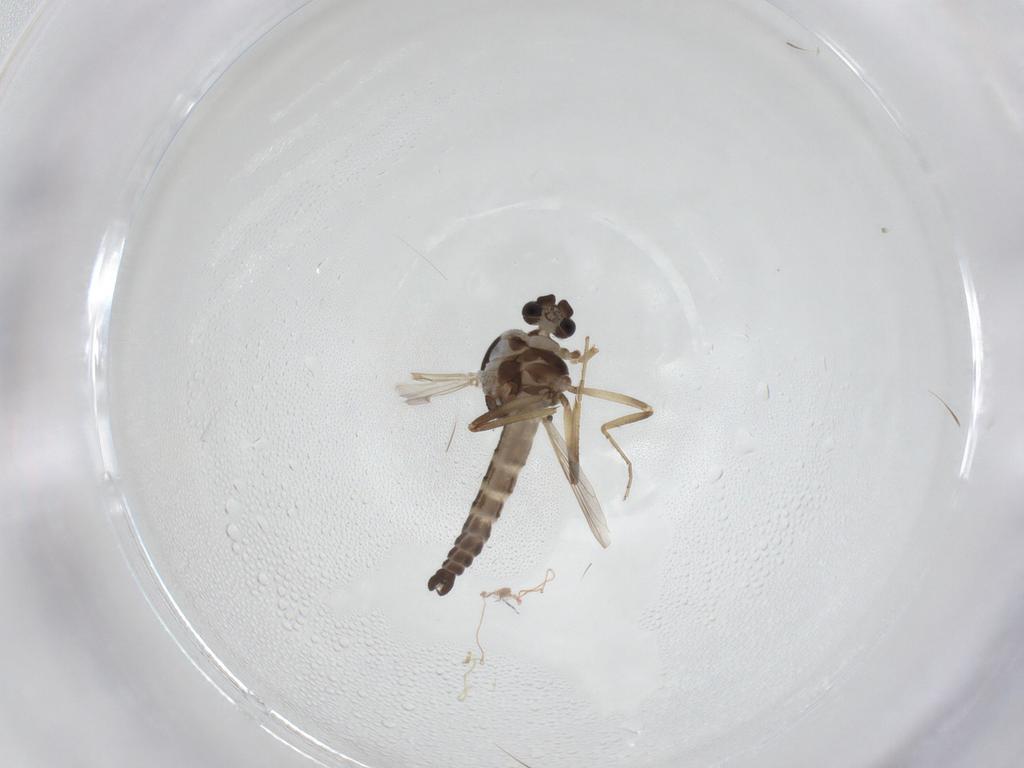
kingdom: Animalia
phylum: Arthropoda
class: Insecta
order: Diptera
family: Ceratopogonidae
